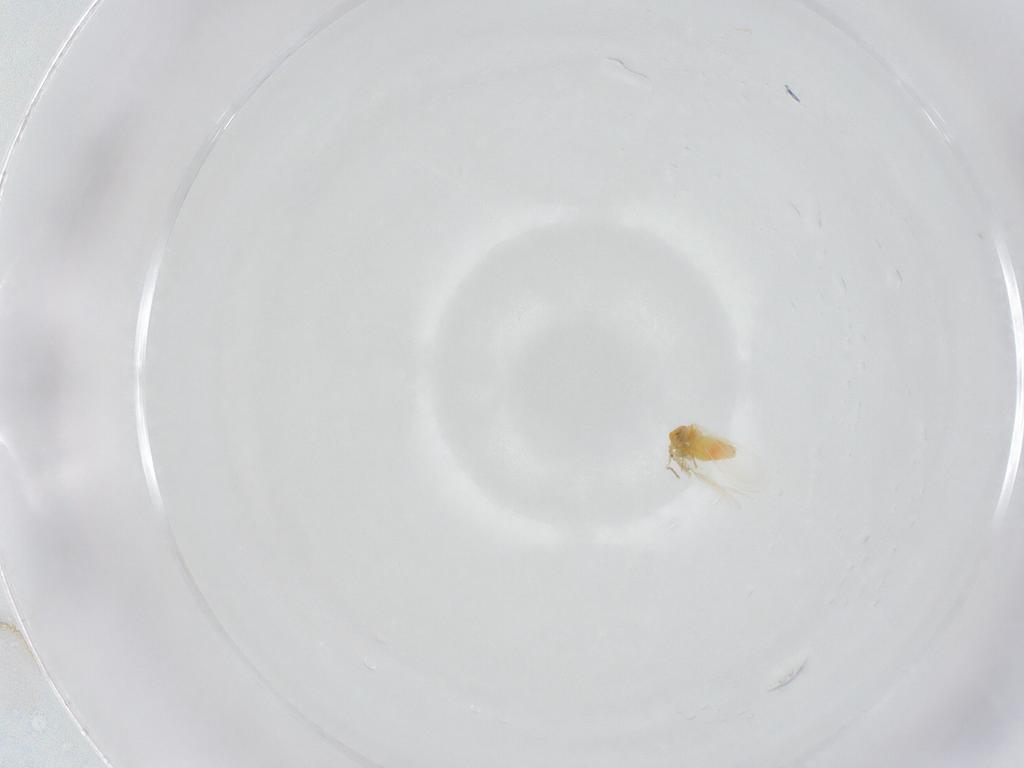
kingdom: Animalia
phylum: Arthropoda
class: Insecta
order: Hemiptera
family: Aleyrodidae
